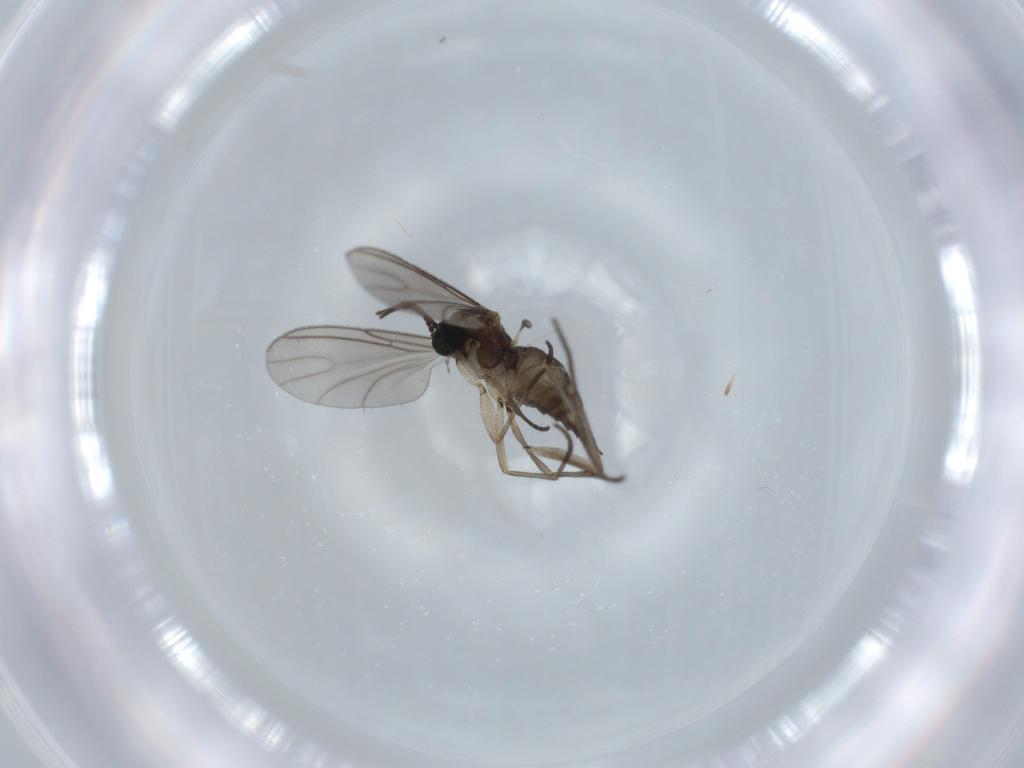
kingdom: Animalia
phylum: Arthropoda
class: Insecta
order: Diptera
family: Sciaridae
